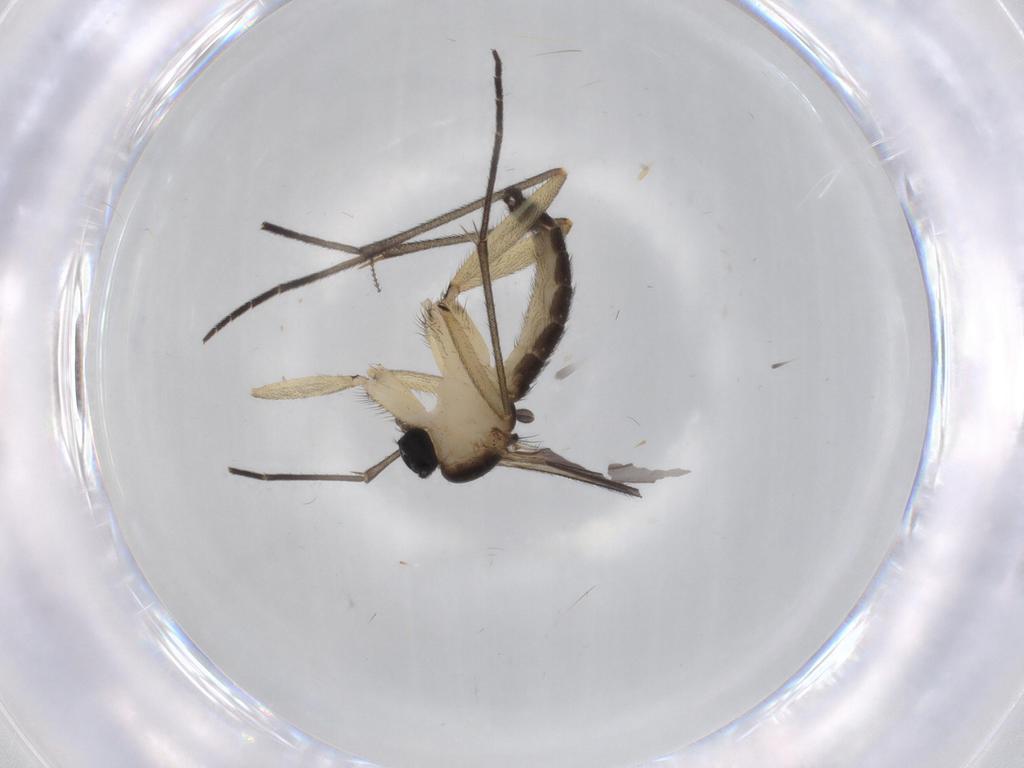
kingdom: Animalia
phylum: Arthropoda
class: Insecta
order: Diptera
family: Sciaridae
